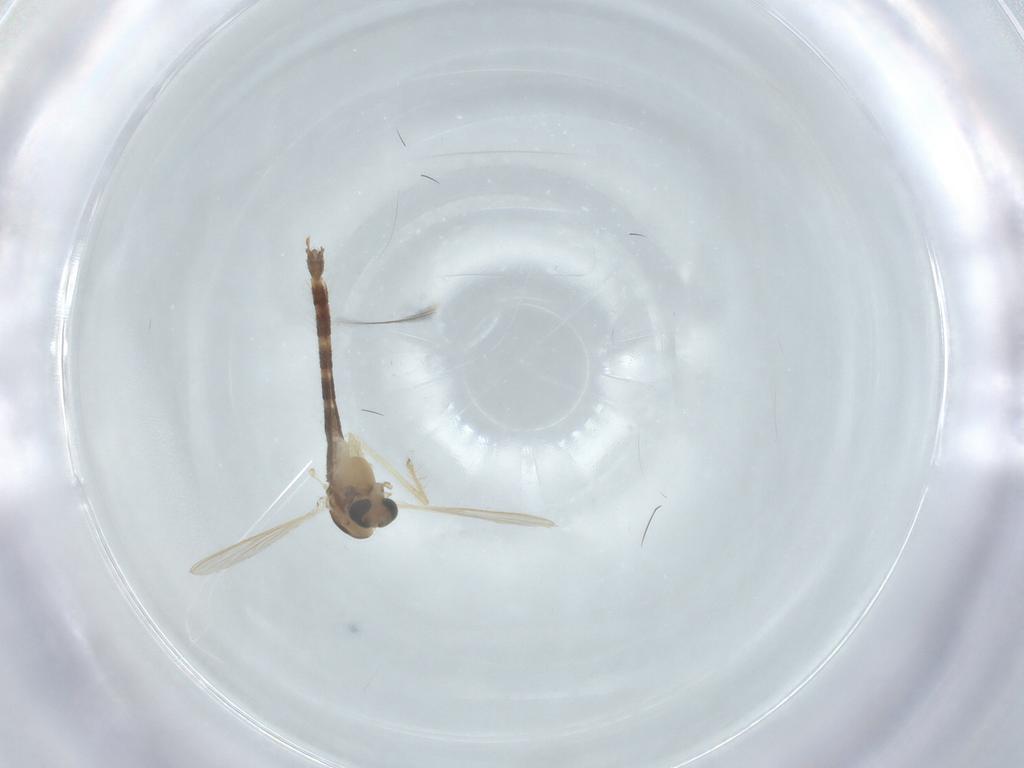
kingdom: Animalia
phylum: Arthropoda
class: Insecta
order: Diptera
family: Chironomidae
